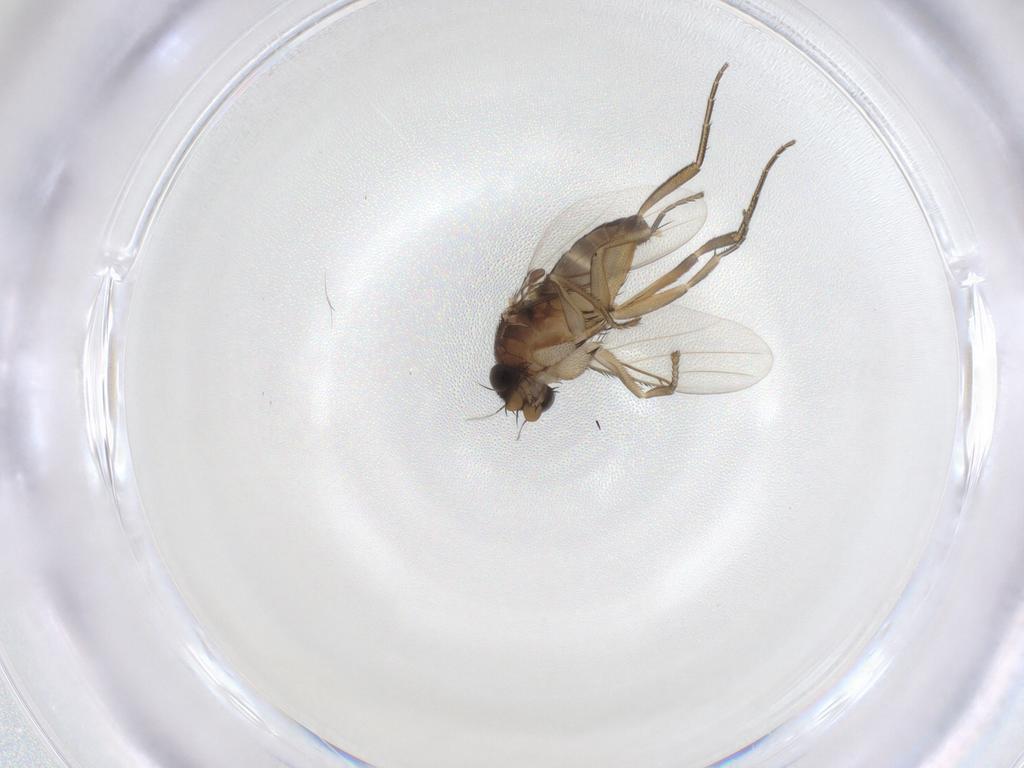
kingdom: Animalia
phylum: Arthropoda
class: Insecta
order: Diptera
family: Phoridae
